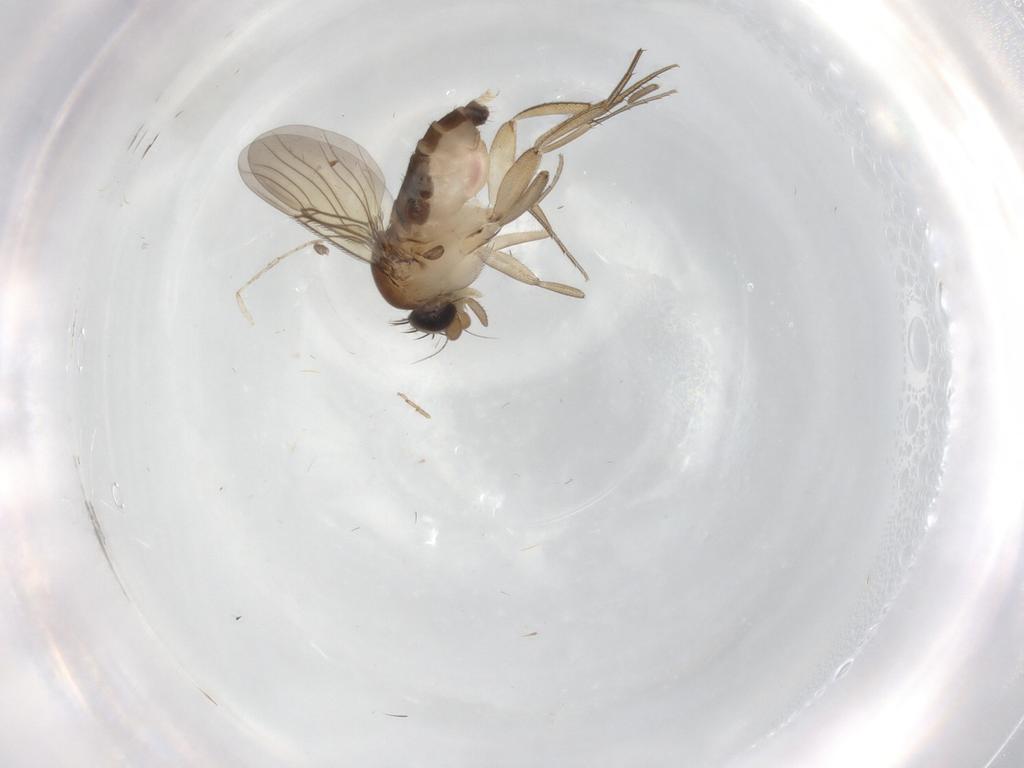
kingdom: Animalia
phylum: Arthropoda
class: Insecta
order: Diptera
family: Phoridae
